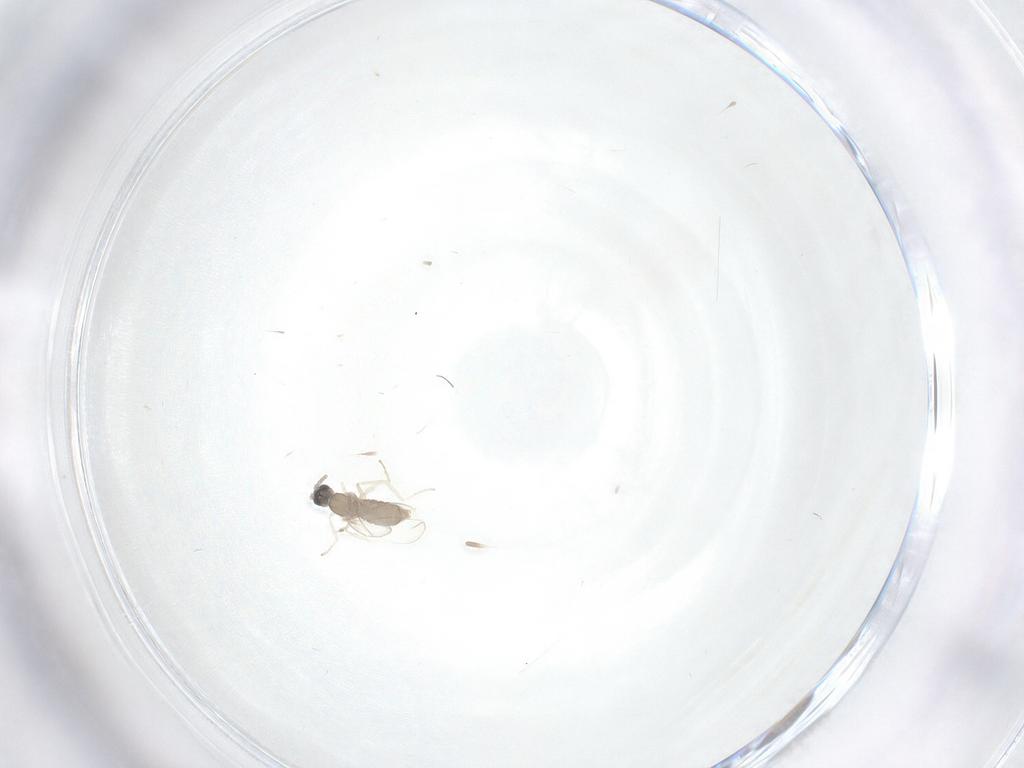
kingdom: Animalia
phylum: Arthropoda
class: Insecta
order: Diptera
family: Cecidomyiidae
